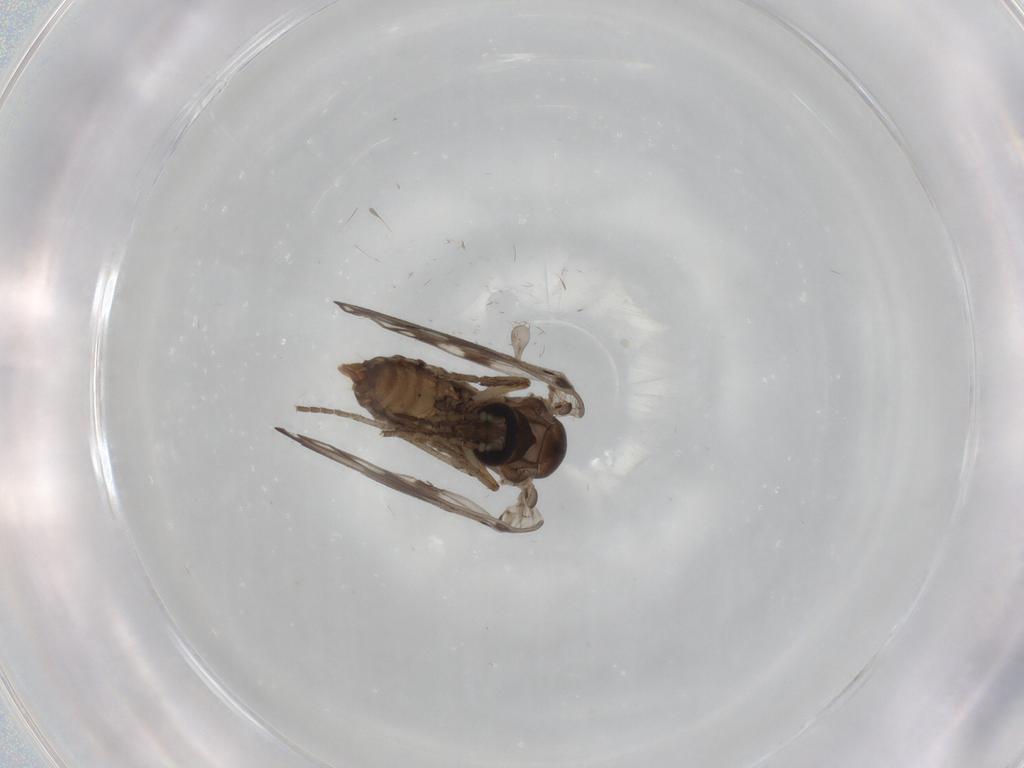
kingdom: Animalia
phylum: Arthropoda
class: Insecta
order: Diptera
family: Psychodidae
